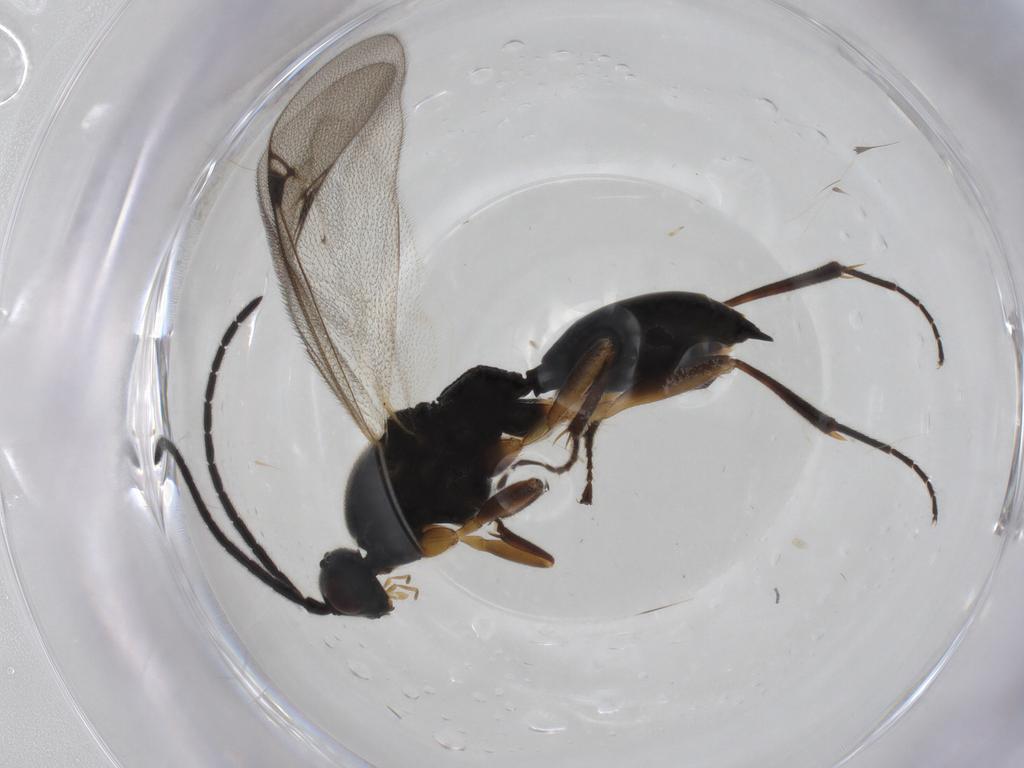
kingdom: Animalia
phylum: Arthropoda
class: Insecta
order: Hymenoptera
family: Proctotrupidae
